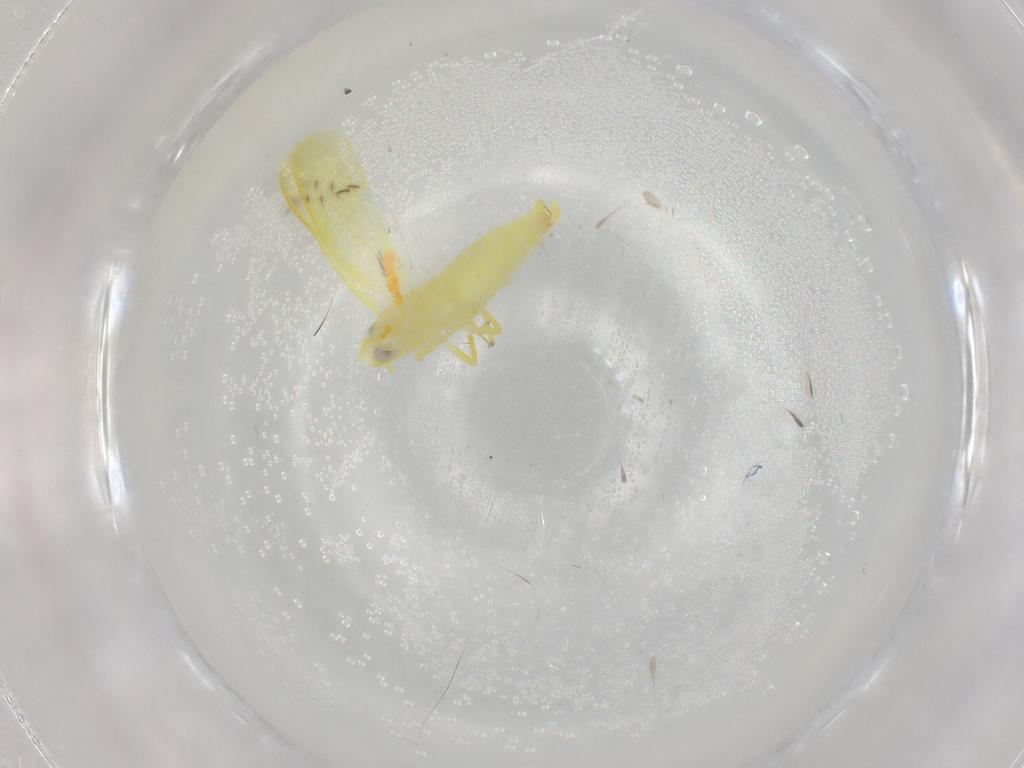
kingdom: Animalia
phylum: Arthropoda
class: Insecta
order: Hemiptera
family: Cicadellidae
